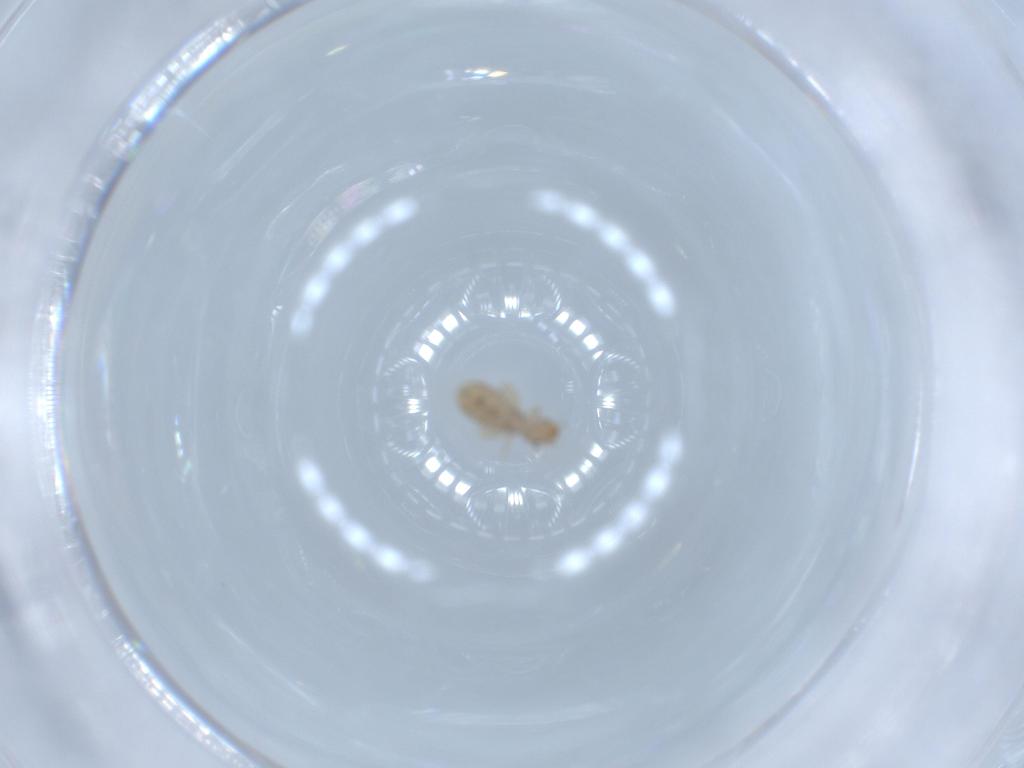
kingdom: Animalia
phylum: Arthropoda
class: Insecta
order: Psocodea
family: Liposcelididae
